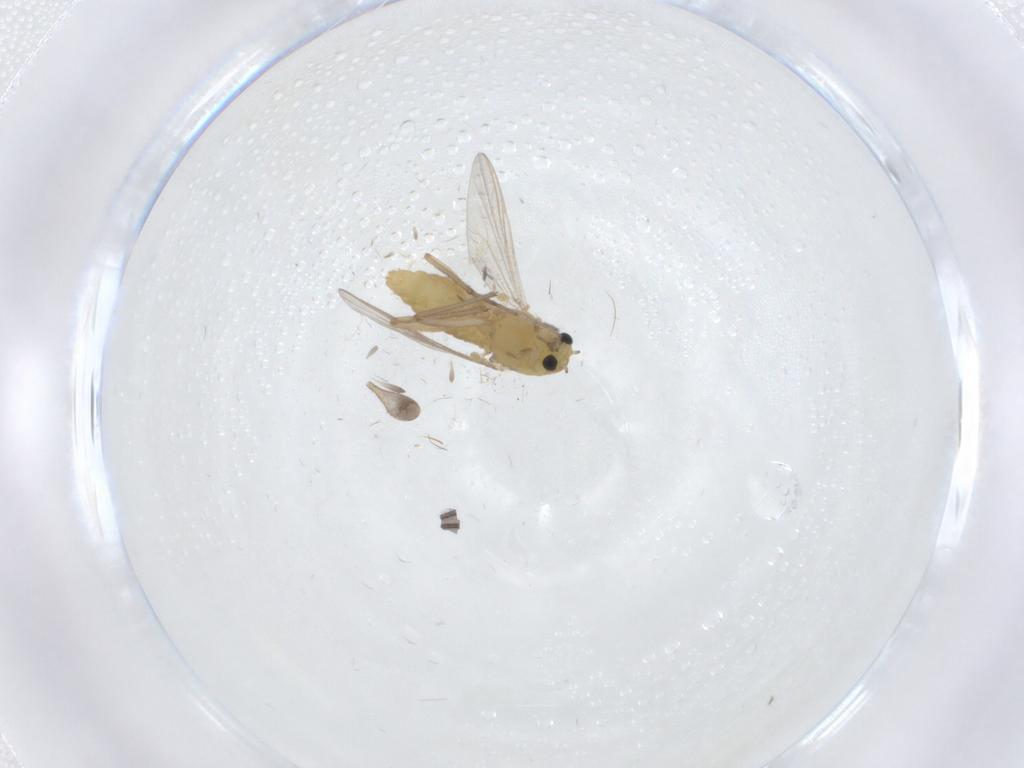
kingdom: Animalia
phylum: Arthropoda
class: Insecta
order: Diptera
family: Chironomidae
